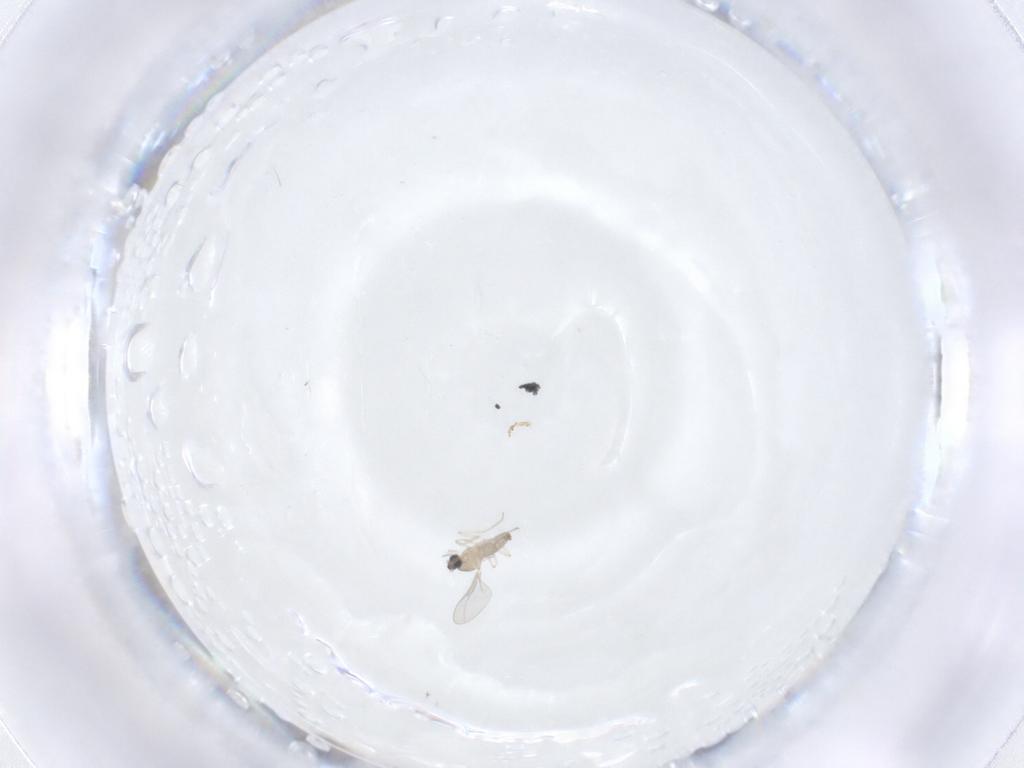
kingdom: Animalia
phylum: Arthropoda
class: Insecta
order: Diptera
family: Cecidomyiidae
